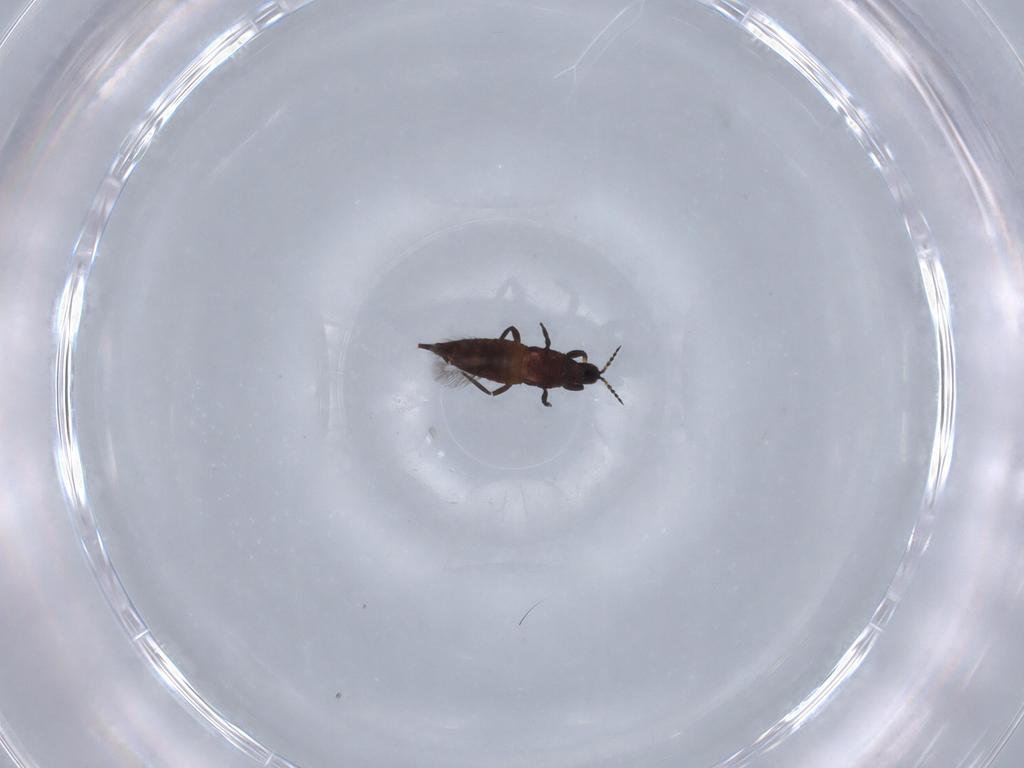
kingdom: Animalia
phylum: Arthropoda
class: Insecta
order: Thysanoptera
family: Phlaeothripidae
